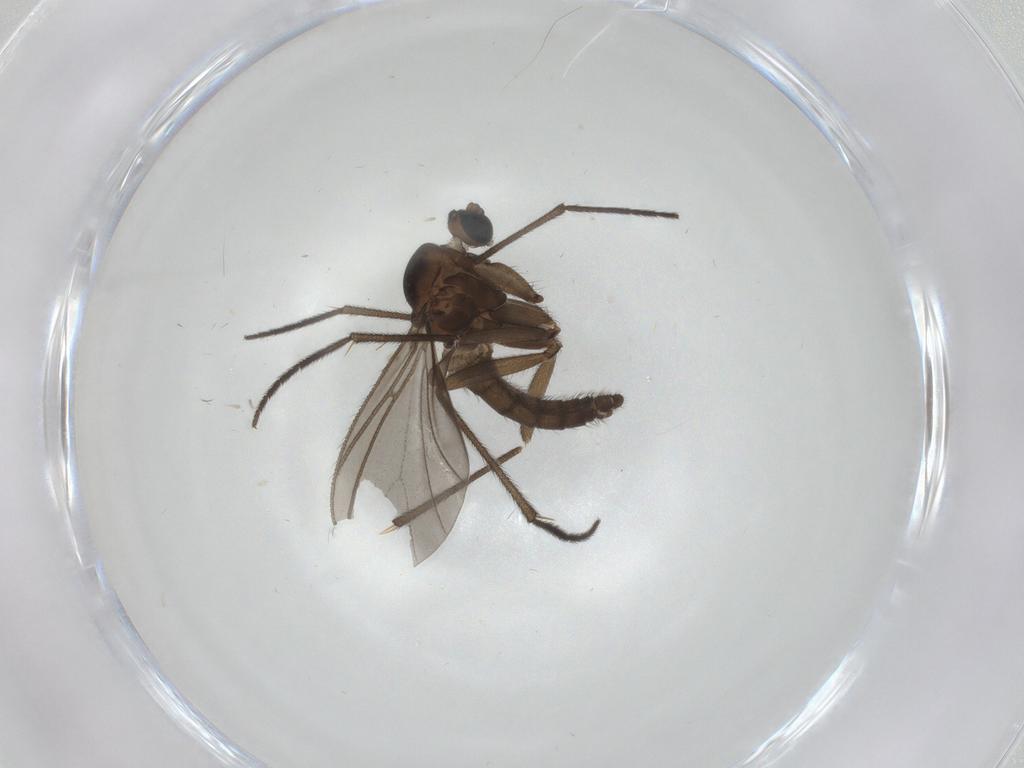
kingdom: Animalia
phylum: Arthropoda
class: Insecta
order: Diptera
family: Sciaridae
